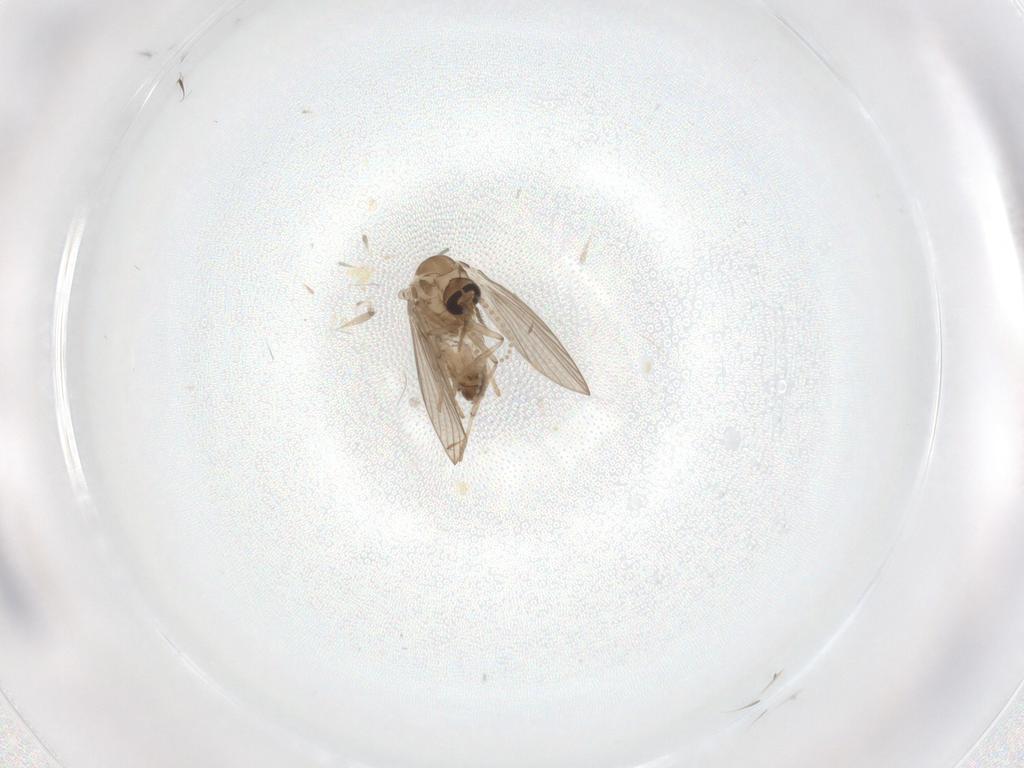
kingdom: Animalia
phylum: Arthropoda
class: Insecta
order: Diptera
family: Psychodidae
